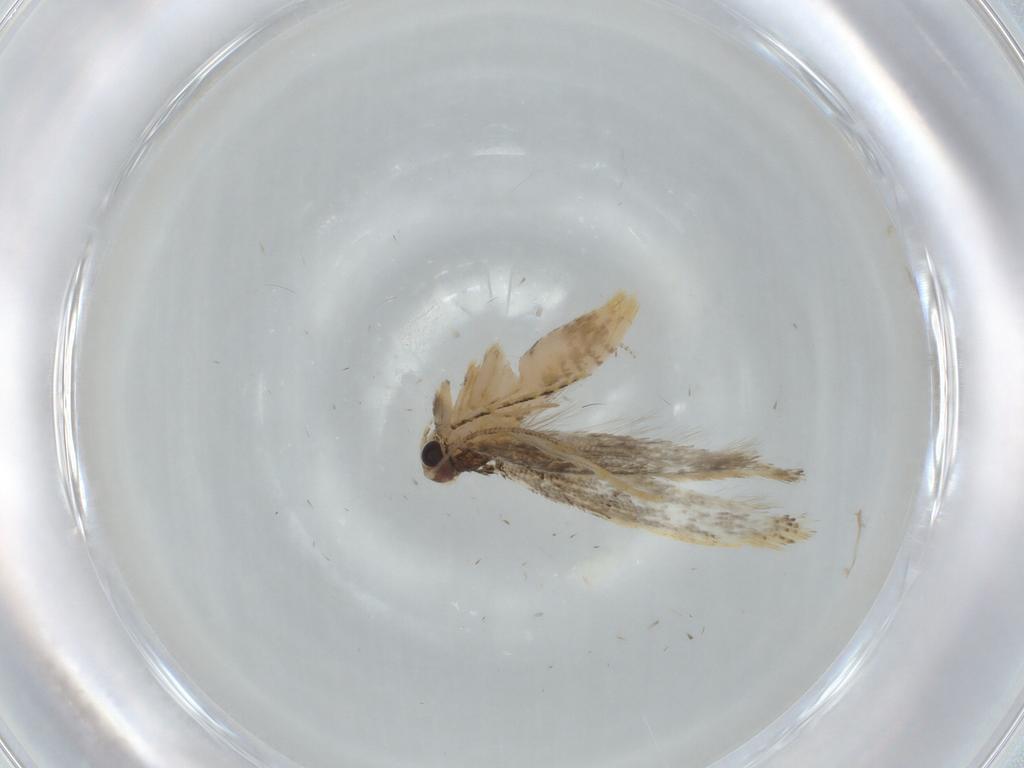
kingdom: Animalia
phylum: Arthropoda
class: Insecta
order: Lepidoptera
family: Tineidae
